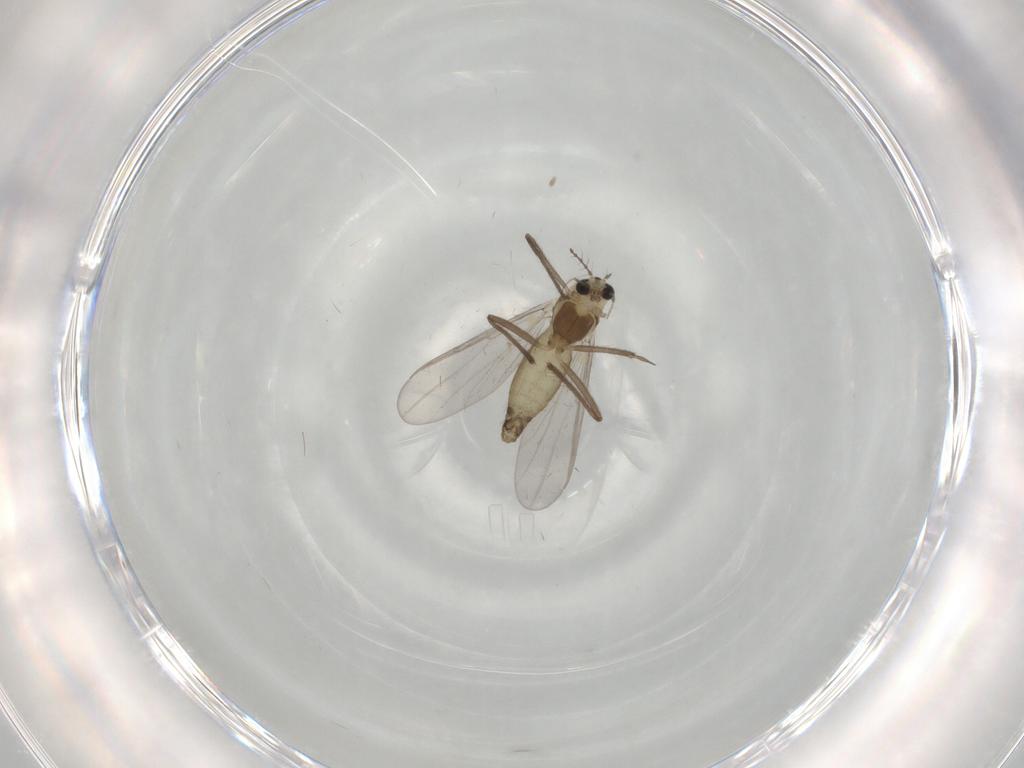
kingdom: Animalia
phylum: Arthropoda
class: Insecta
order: Diptera
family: Chironomidae
